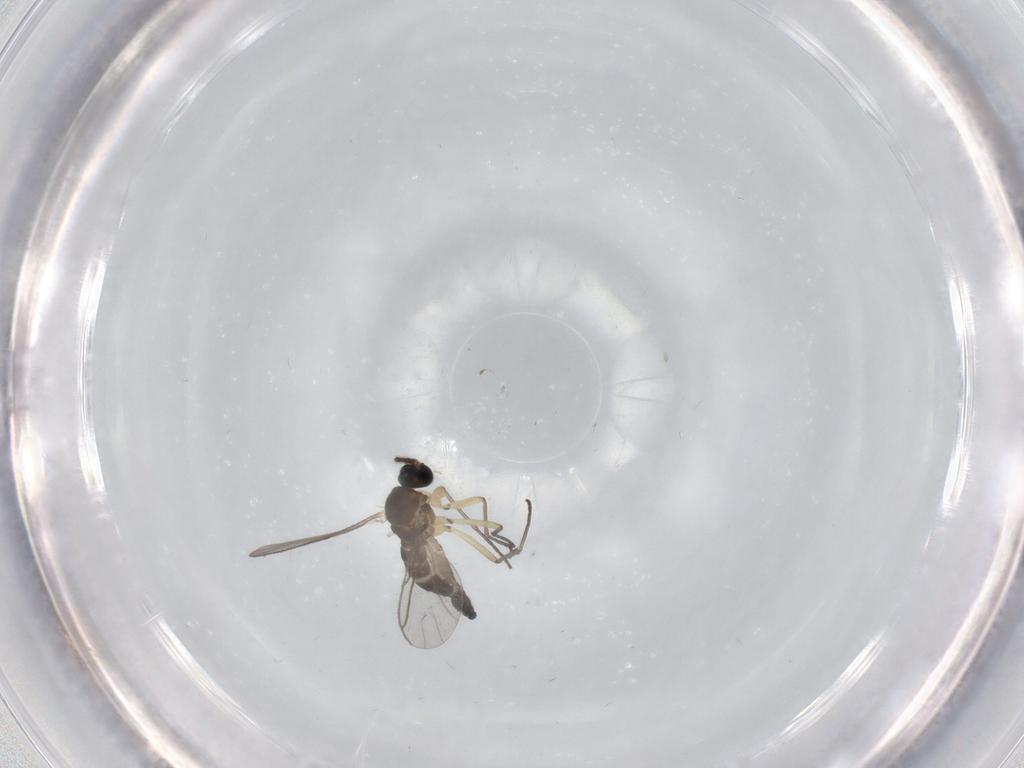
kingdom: Animalia
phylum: Arthropoda
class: Insecta
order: Diptera
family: Sciaridae
